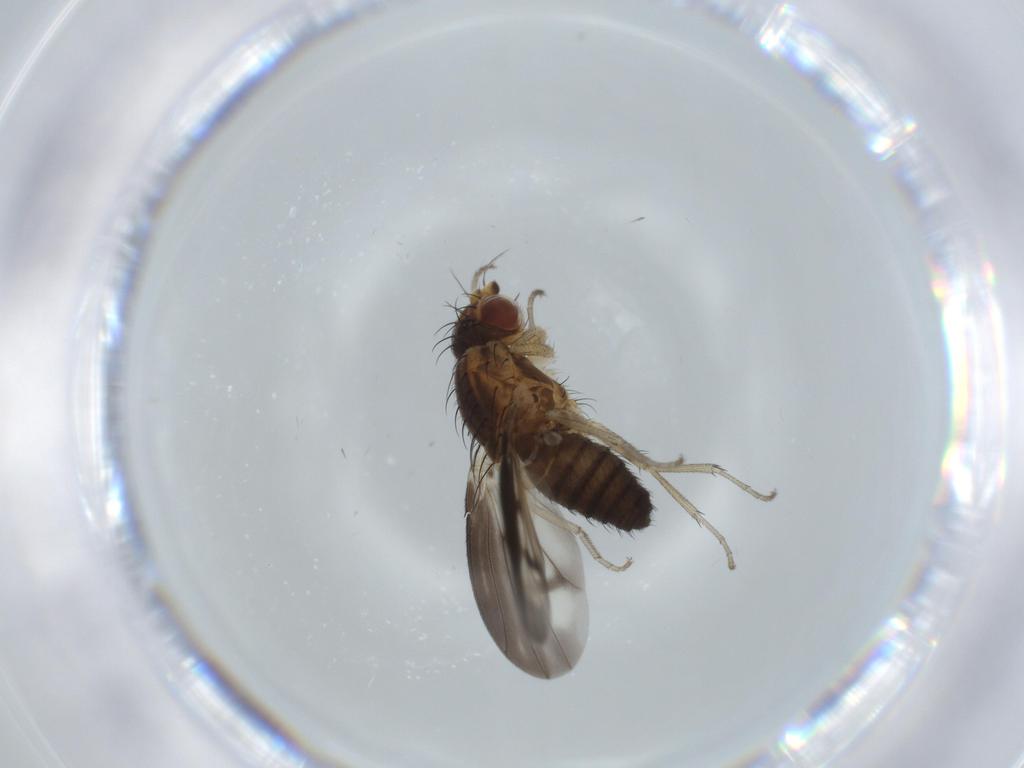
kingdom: Animalia
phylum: Arthropoda
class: Insecta
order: Diptera
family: Heleomyzidae
